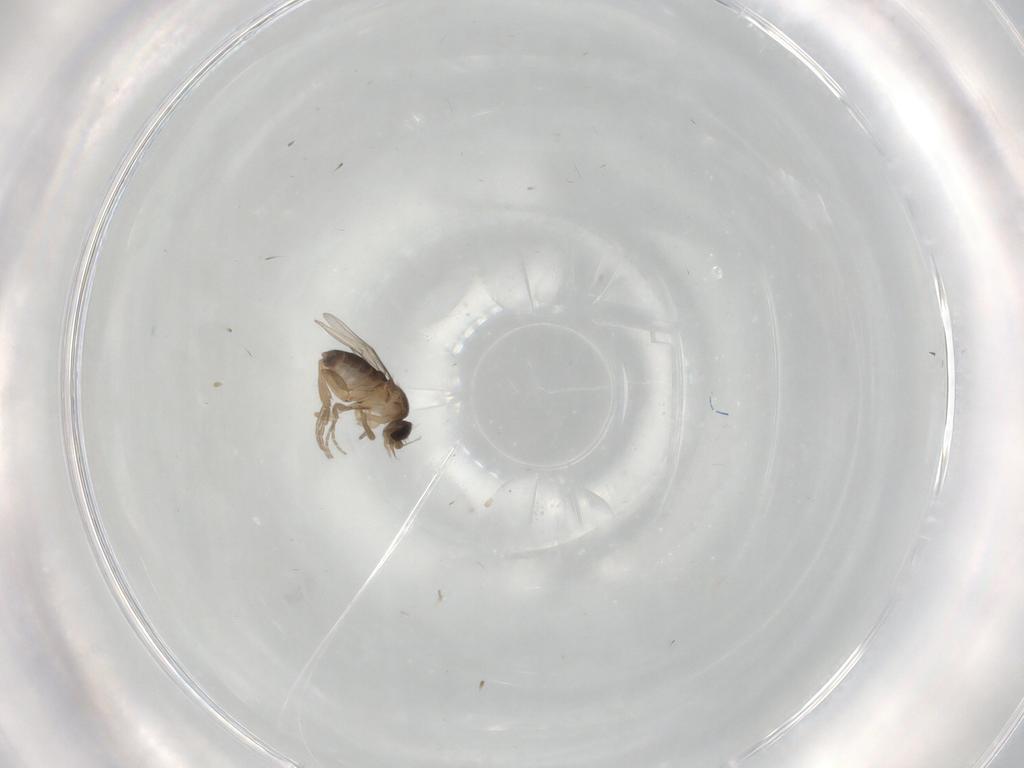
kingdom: Animalia
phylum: Arthropoda
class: Insecta
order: Diptera
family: Phoridae
